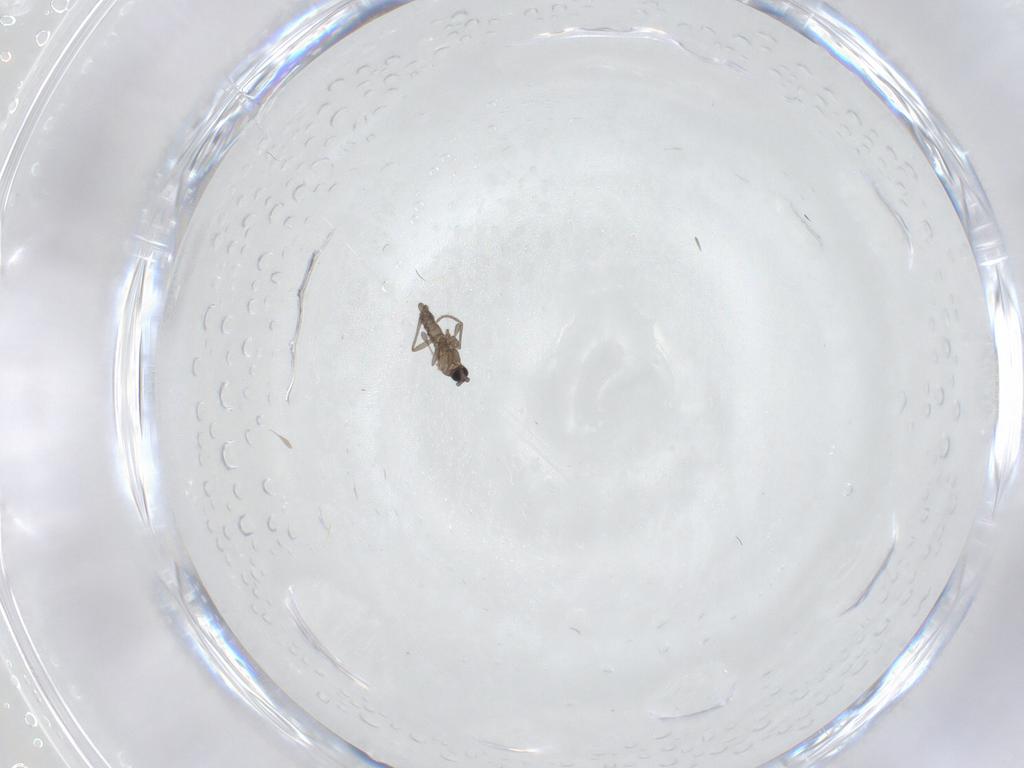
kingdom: Animalia
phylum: Arthropoda
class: Insecta
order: Diptera
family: Sciaridae
